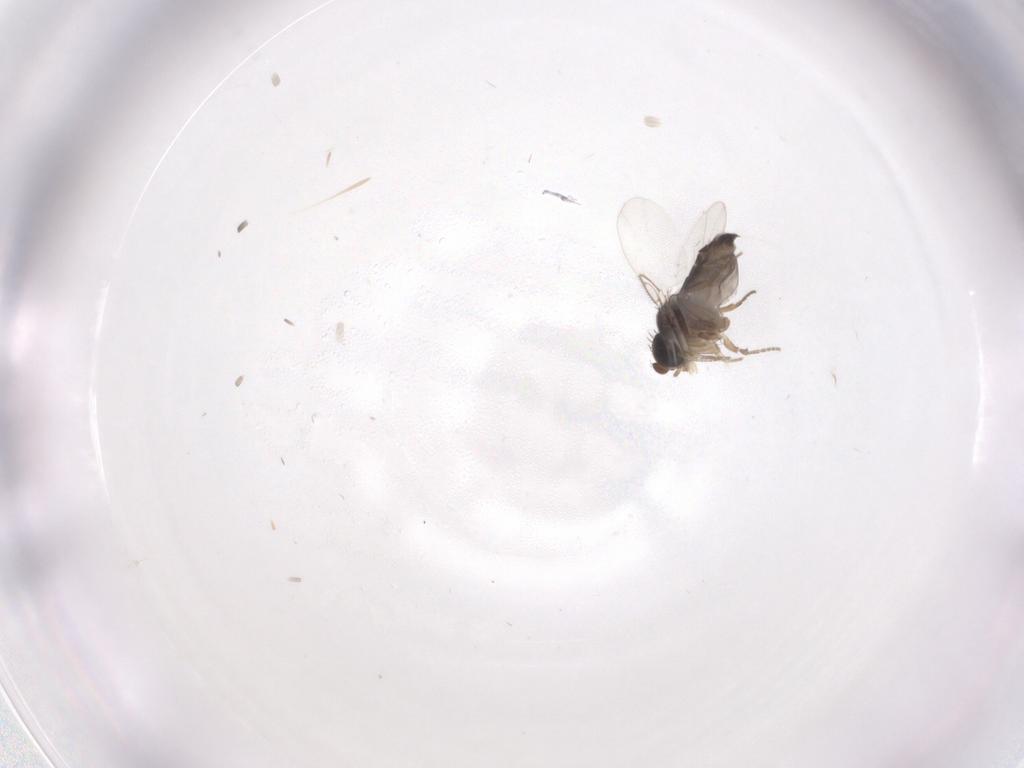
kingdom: Animalia
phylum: Arthropoda
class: Insecta
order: Diptera
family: Phoridae
